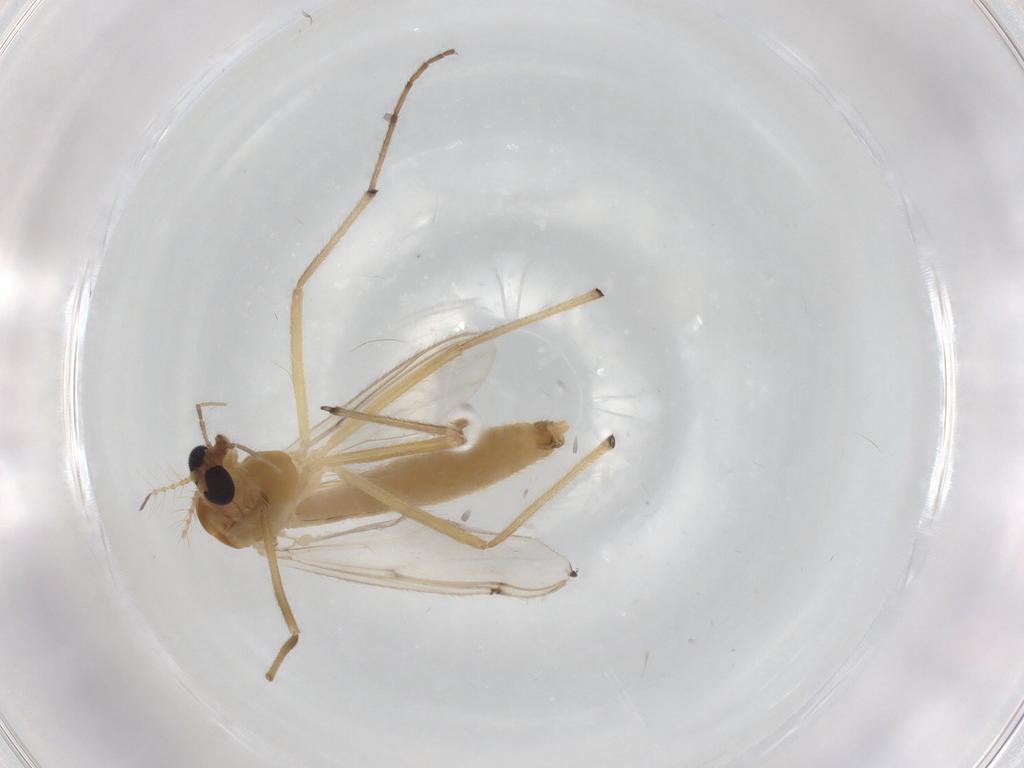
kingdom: Animalia
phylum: Arthropoda
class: Insecta
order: Diptera
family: Chironomidae
